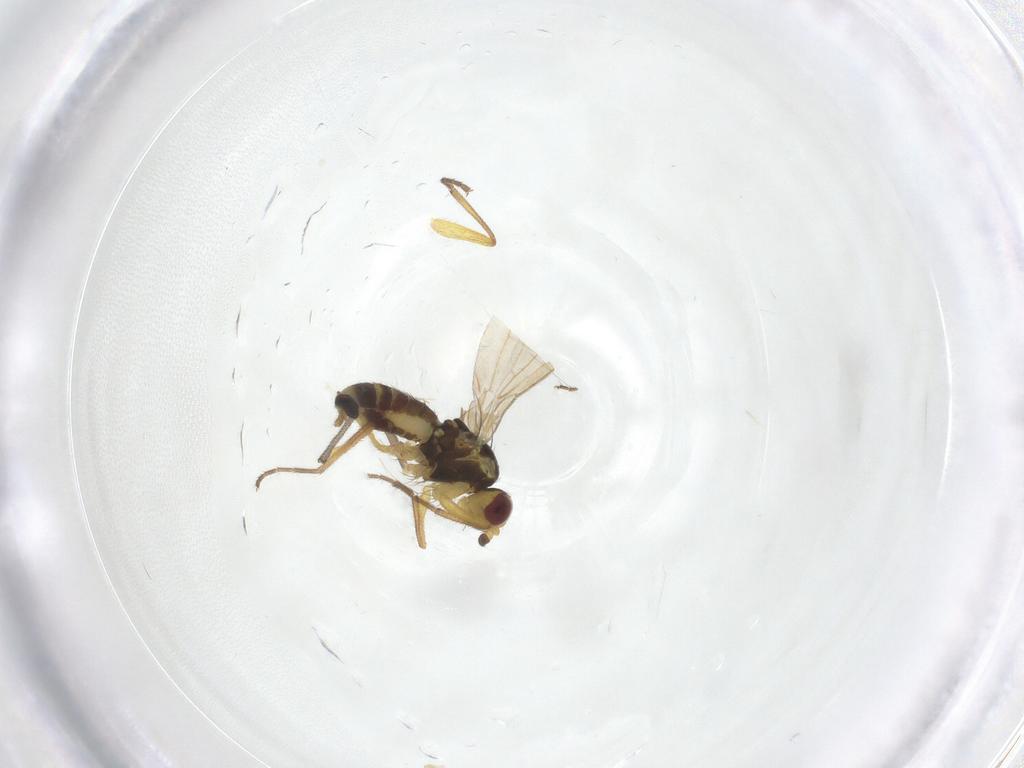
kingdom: Animalia
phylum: Arthropoda
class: Insecta
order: Diptera
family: Agromyzidae
